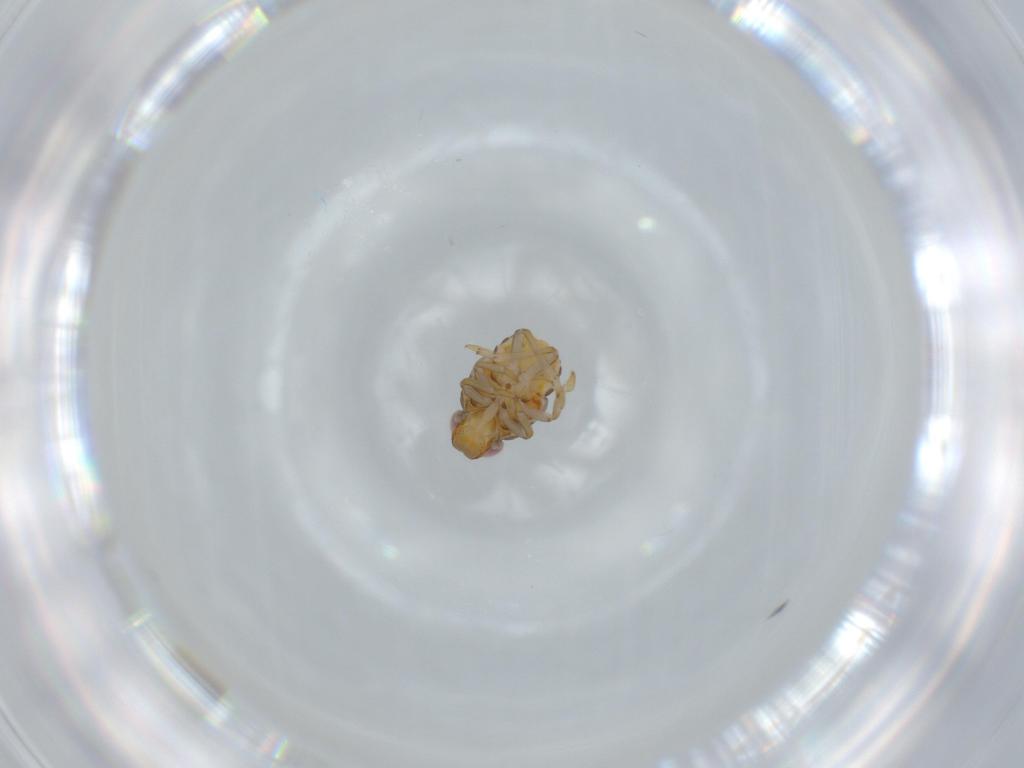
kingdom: Animalia
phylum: Arthropoda
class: Insecta
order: Hemiptera
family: Issidae
